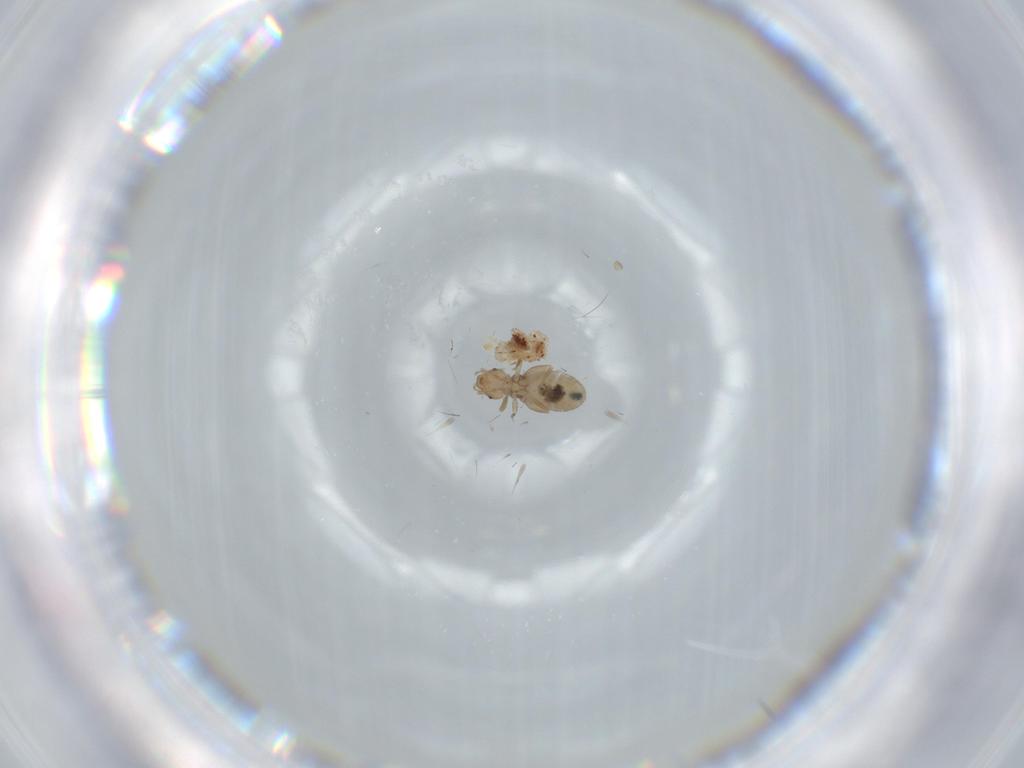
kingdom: Animalia
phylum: Arthropoda
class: Insecta
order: Psocodea
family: Liposcelididae
